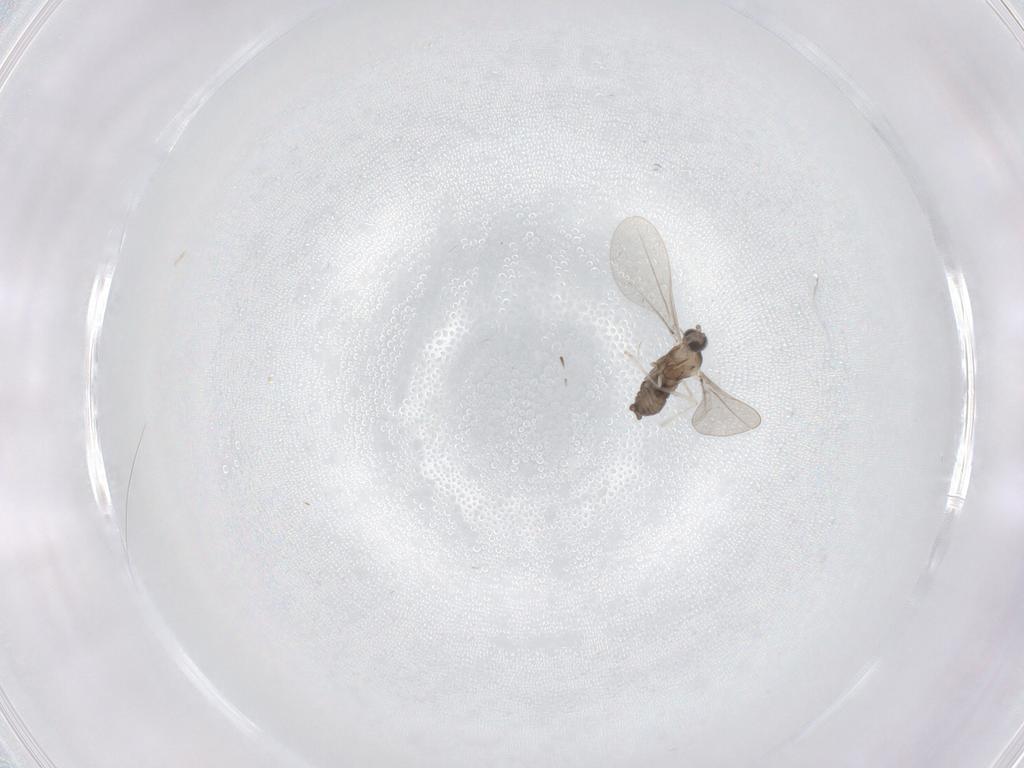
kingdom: Animalia
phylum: Arthropoda
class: Insecta
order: Diptera
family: Cecidomyiidae
